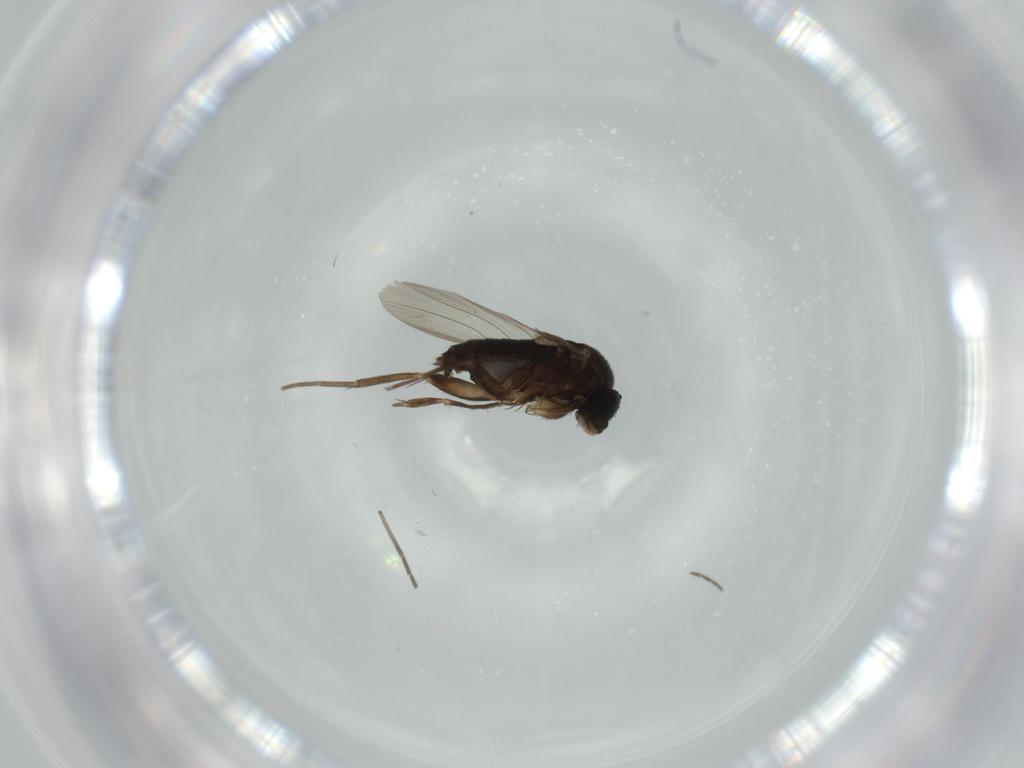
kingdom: Animalia
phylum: Arthropoda
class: Insecta
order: Diptera
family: Phoridae
